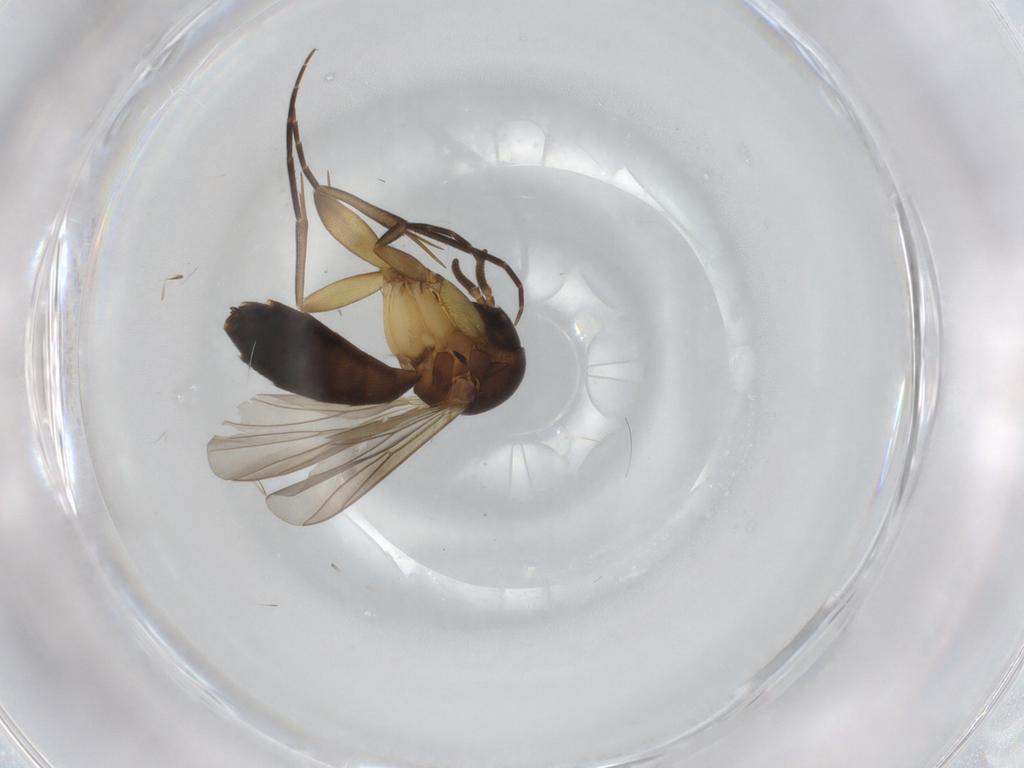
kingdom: Animalia
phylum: Arthropoda
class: Insecta
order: Diptera
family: Mycetophilidae
